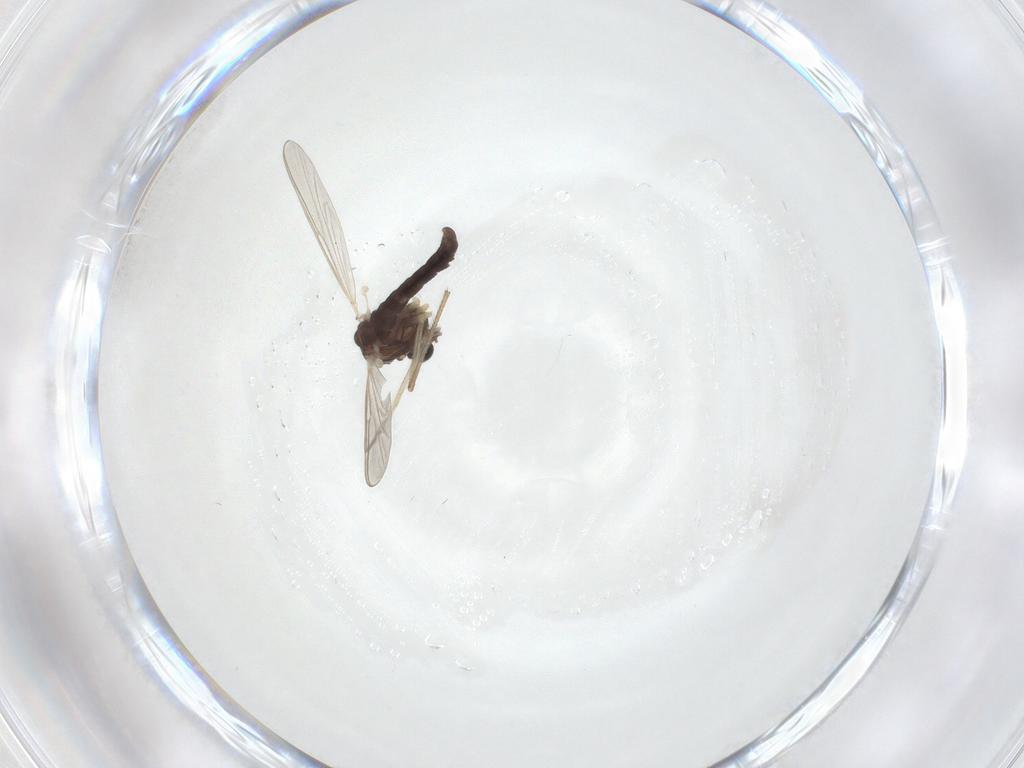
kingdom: Animalia
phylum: Arthropoda
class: Insecta
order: Diptera
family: Chironomidae
